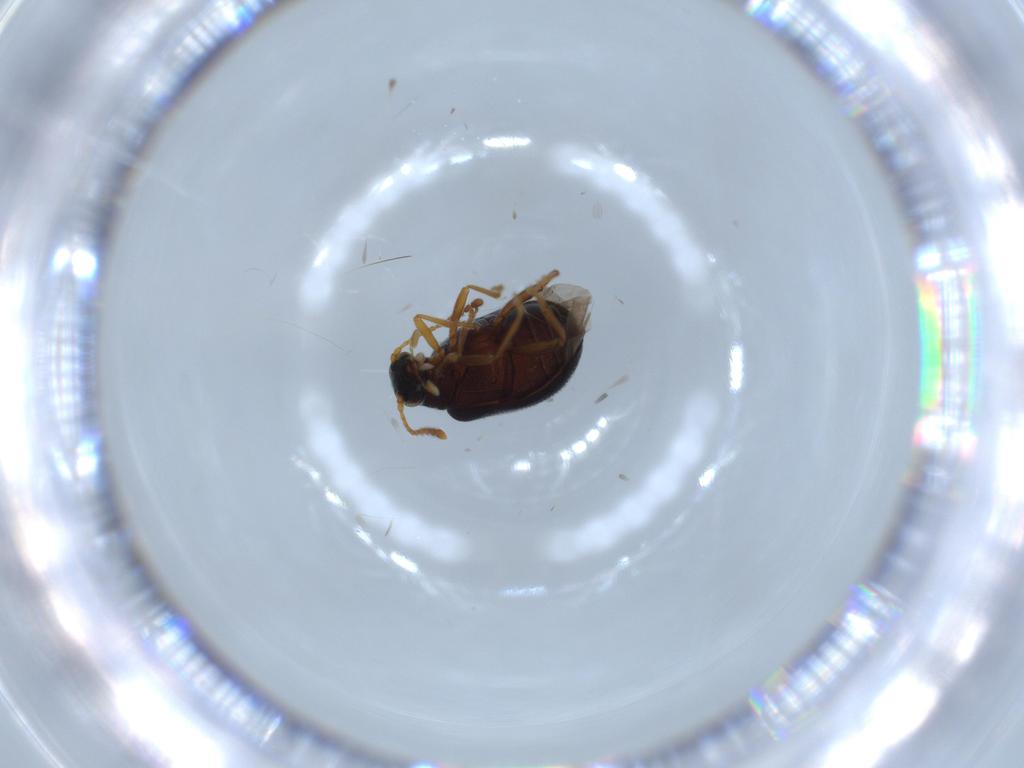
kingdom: Animalia
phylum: Arthropoda
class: Insecta
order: Coleoptera
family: Aderidae
